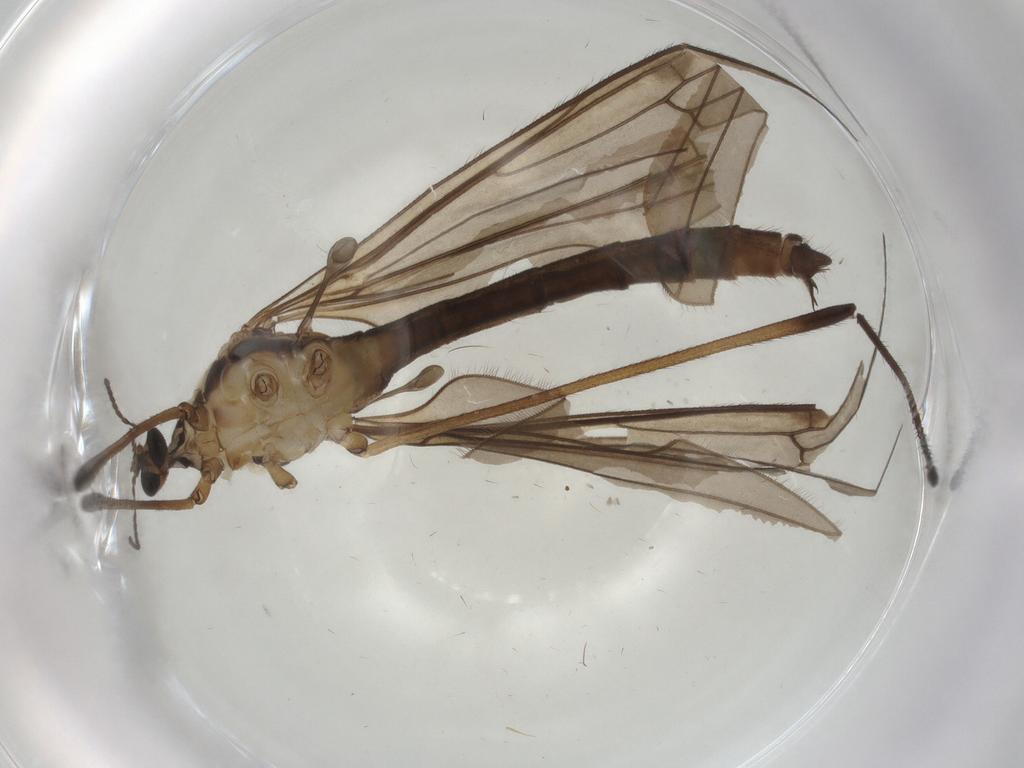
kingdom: Animalia
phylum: Arthropoda
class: Insecta
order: Diptera
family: Limoniidae
